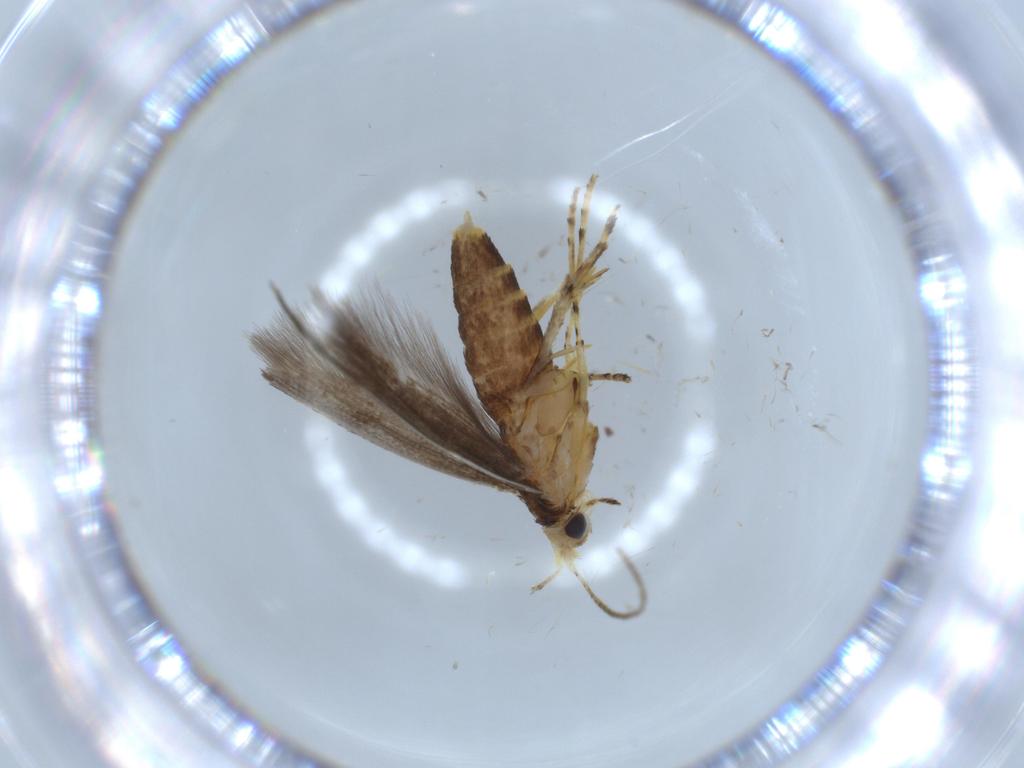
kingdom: Animalia
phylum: Arthropoda
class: Insecta
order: Lepidoptera
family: Argyresthiidae
